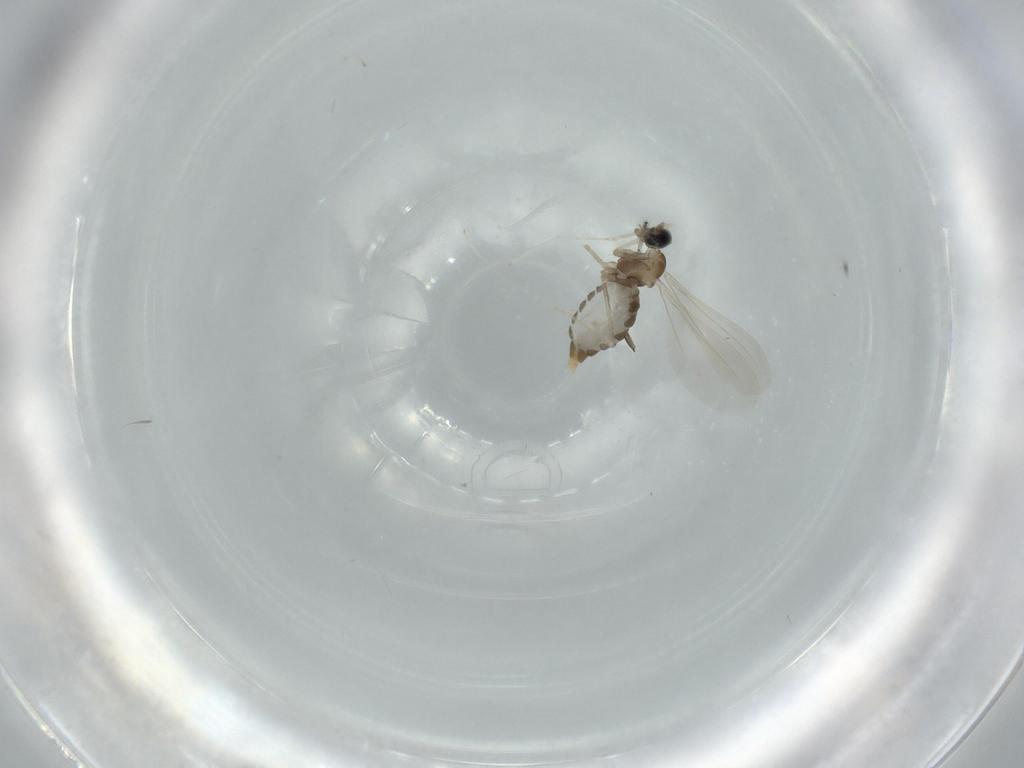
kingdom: Animalia
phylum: Arthropoda
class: Insecta
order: Diptera
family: Cecidomyiidae
